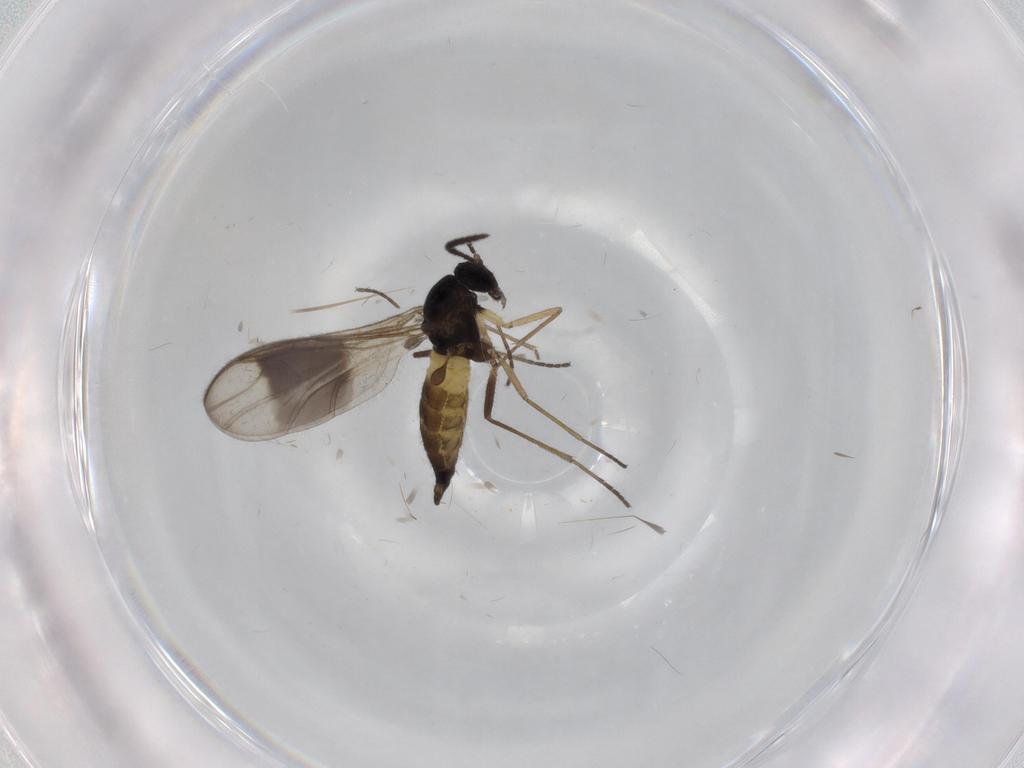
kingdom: Animalia
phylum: Arthropoda
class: Insecta
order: Diptera
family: Sciaridae
